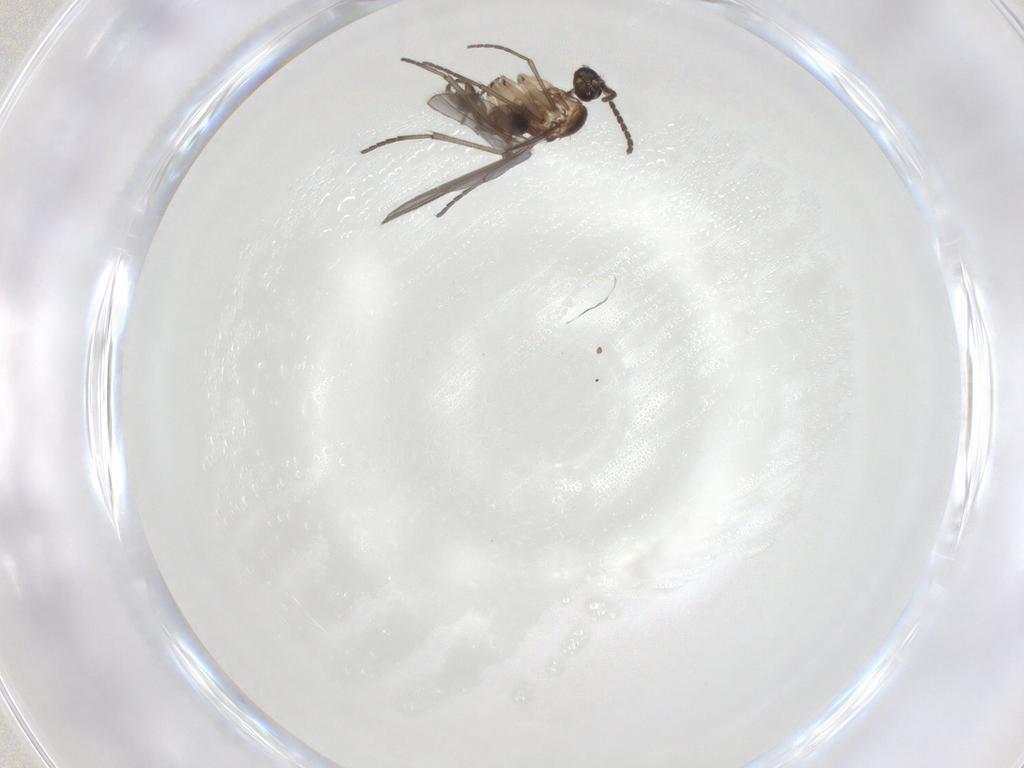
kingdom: Animalia
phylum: Arthropoda
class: Insecta
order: Diptera
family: Sciaridae
